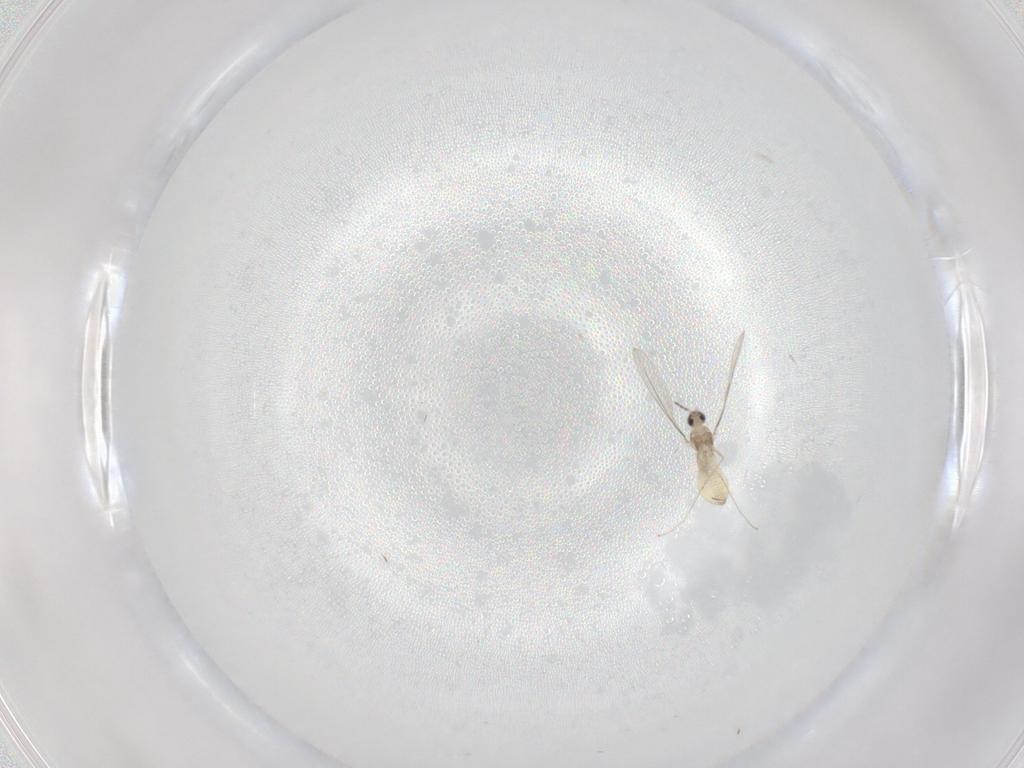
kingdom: Animalia
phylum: Arthropoda
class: Insecta
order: Diptera
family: Cecidomyiidae
